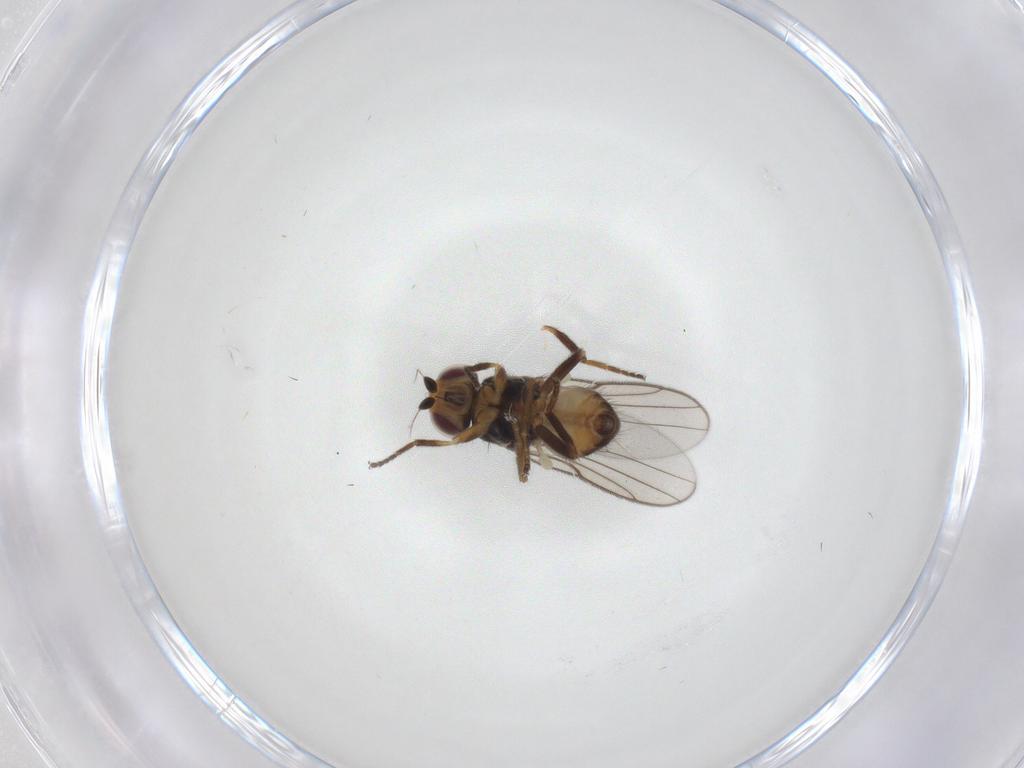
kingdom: Animalia
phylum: Arthropoda
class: Insecta
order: Diptera
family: Chloropidae
